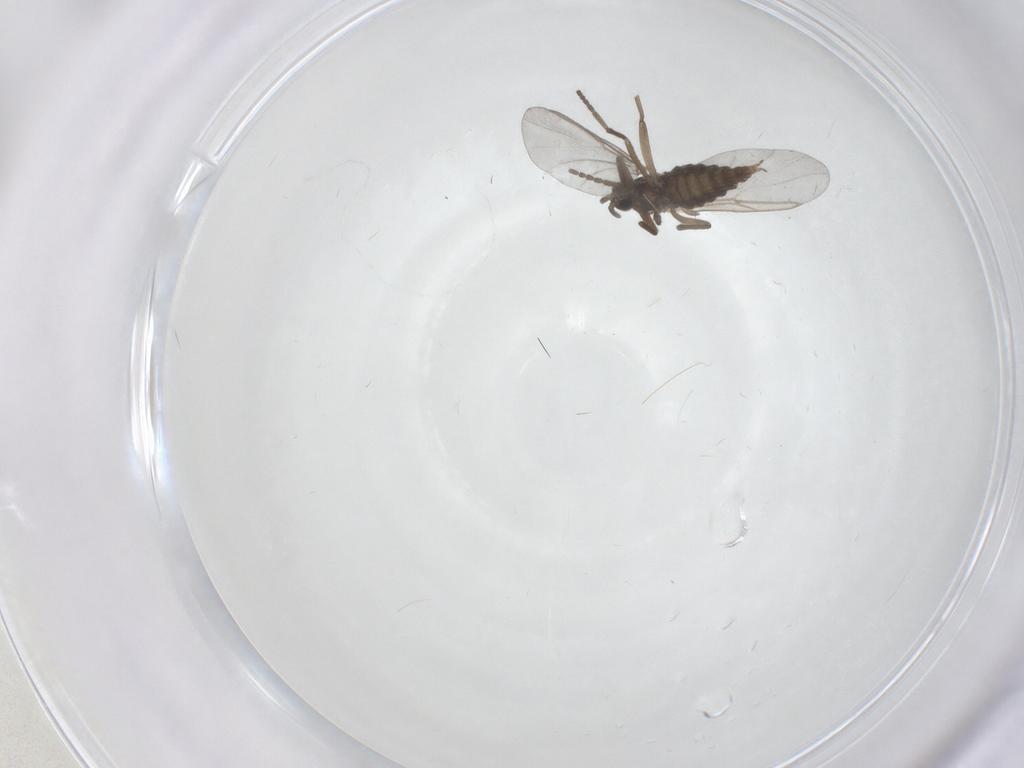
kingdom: Animalia
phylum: Arthropoda
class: Insecta
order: Diptera
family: Cecidomyiidae
